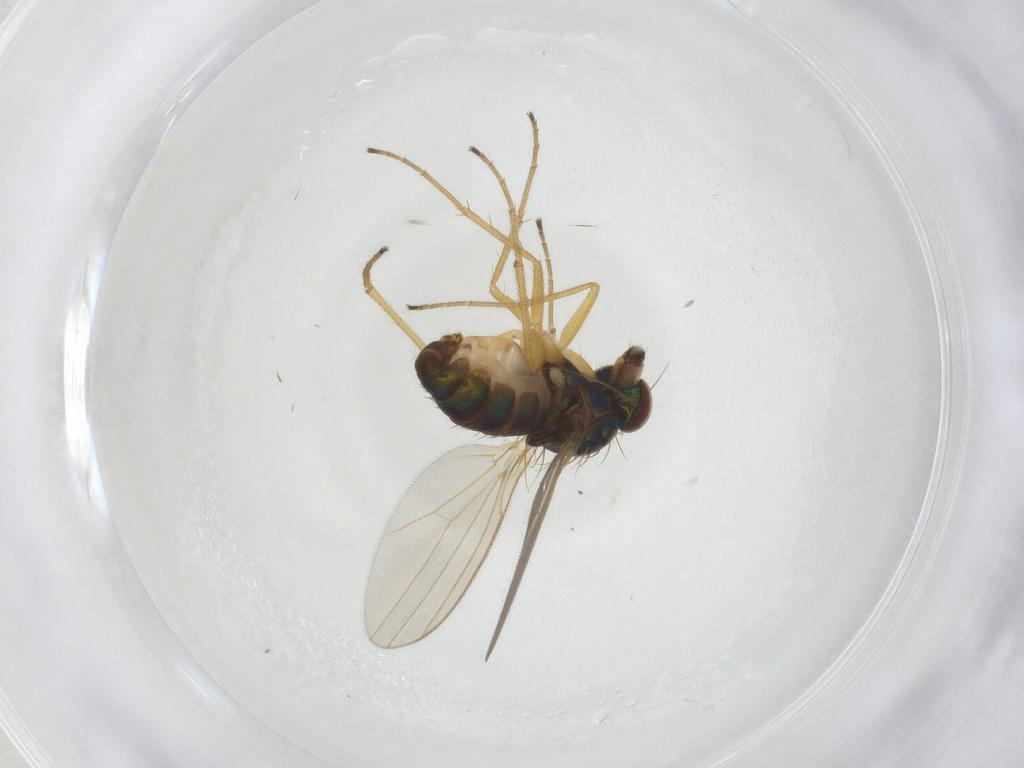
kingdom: Animalia
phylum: Arthropoda
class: Insecta
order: Diptera
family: Dolichopodidae
